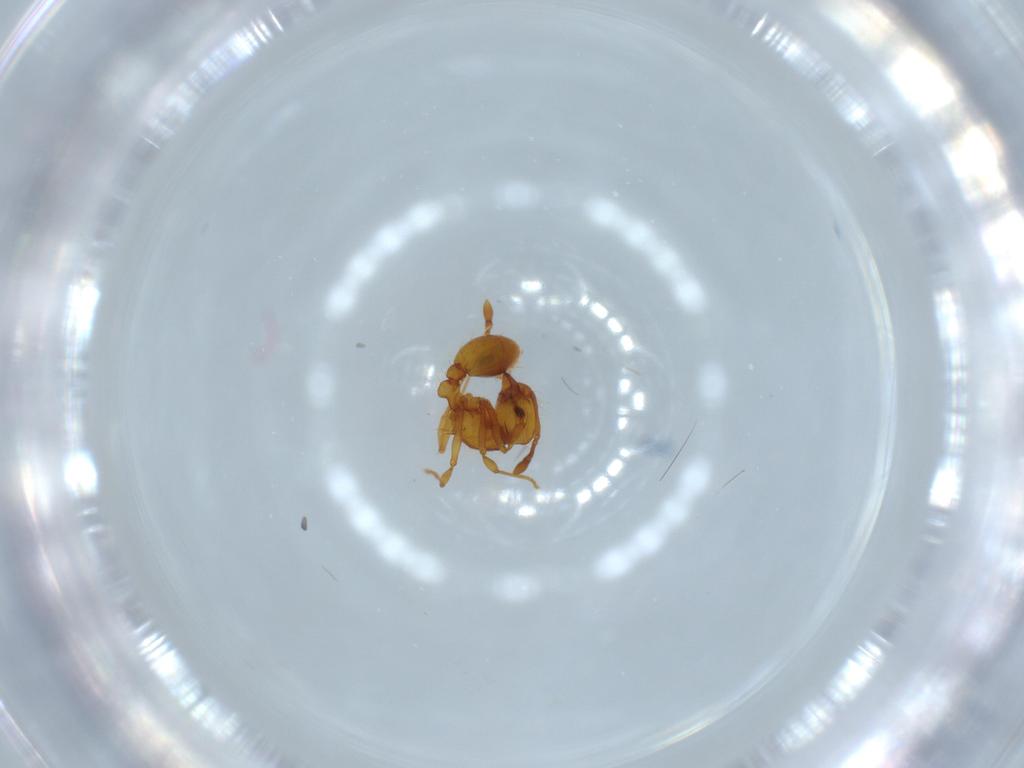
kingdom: Animalia
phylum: Arthropoda
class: Insecta
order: Hymenoptera
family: Formicidae
